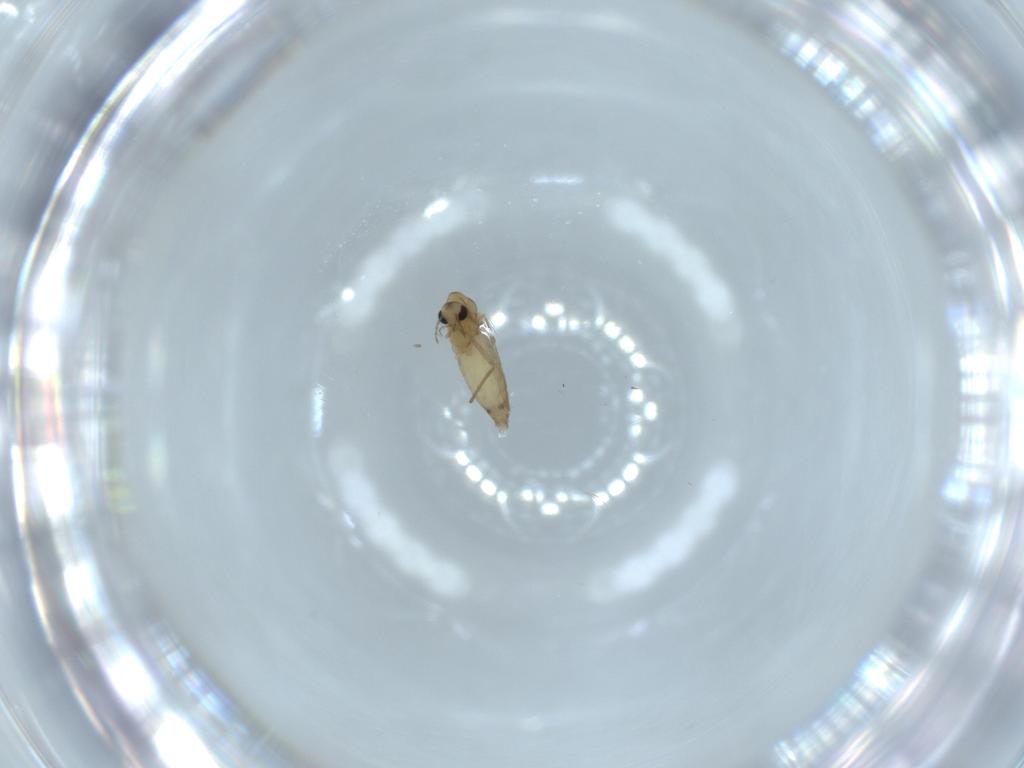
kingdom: Animalia
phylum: Arthropoda
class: Insecta
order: Diptera
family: Chironomidae
